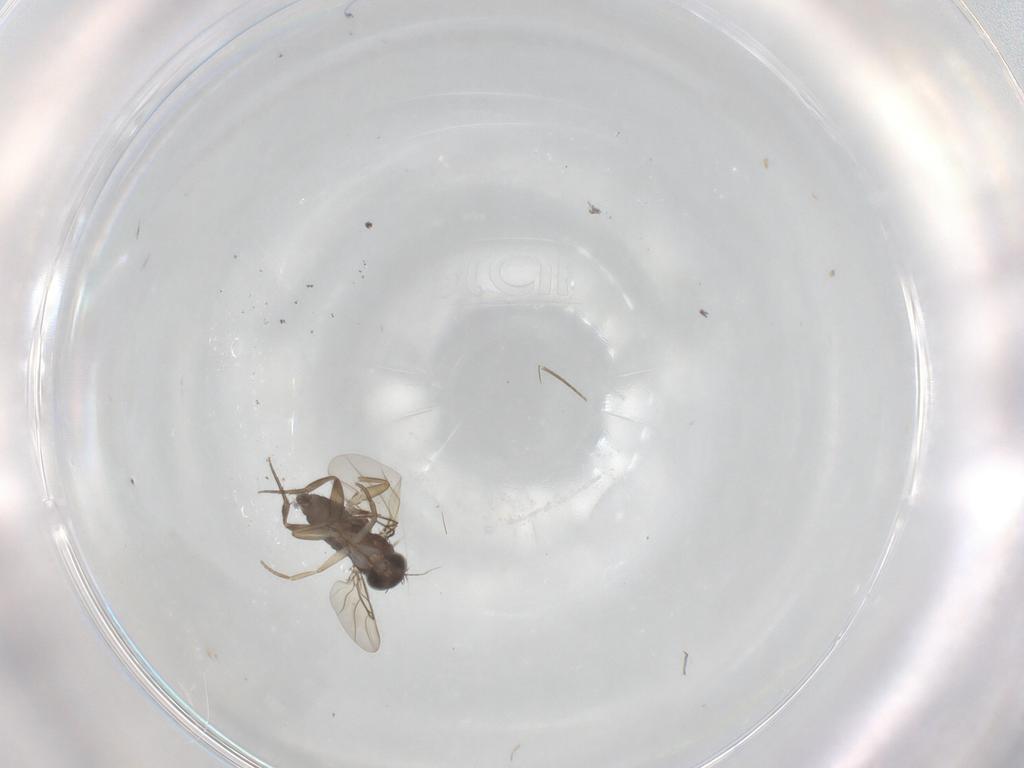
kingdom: Animalia
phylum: Arthropoda
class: Insecta
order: Diptera
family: Phoridae
